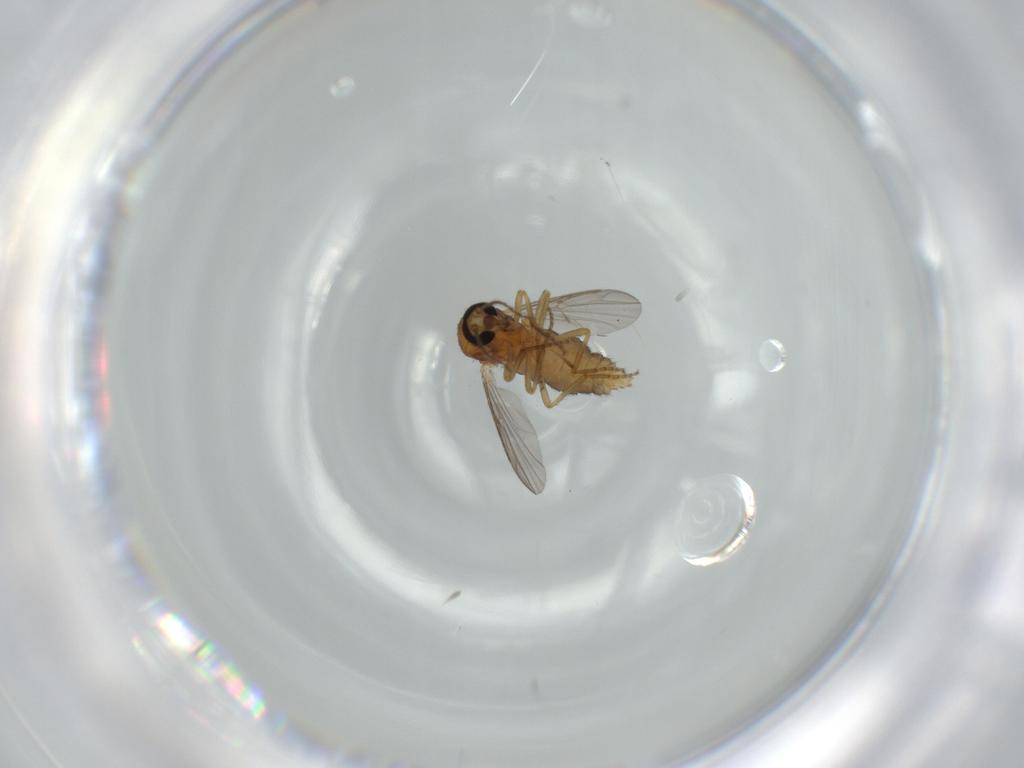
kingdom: Animalia
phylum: Arthropoda
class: Insecta
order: Diptera
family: Ceratopogonidae
